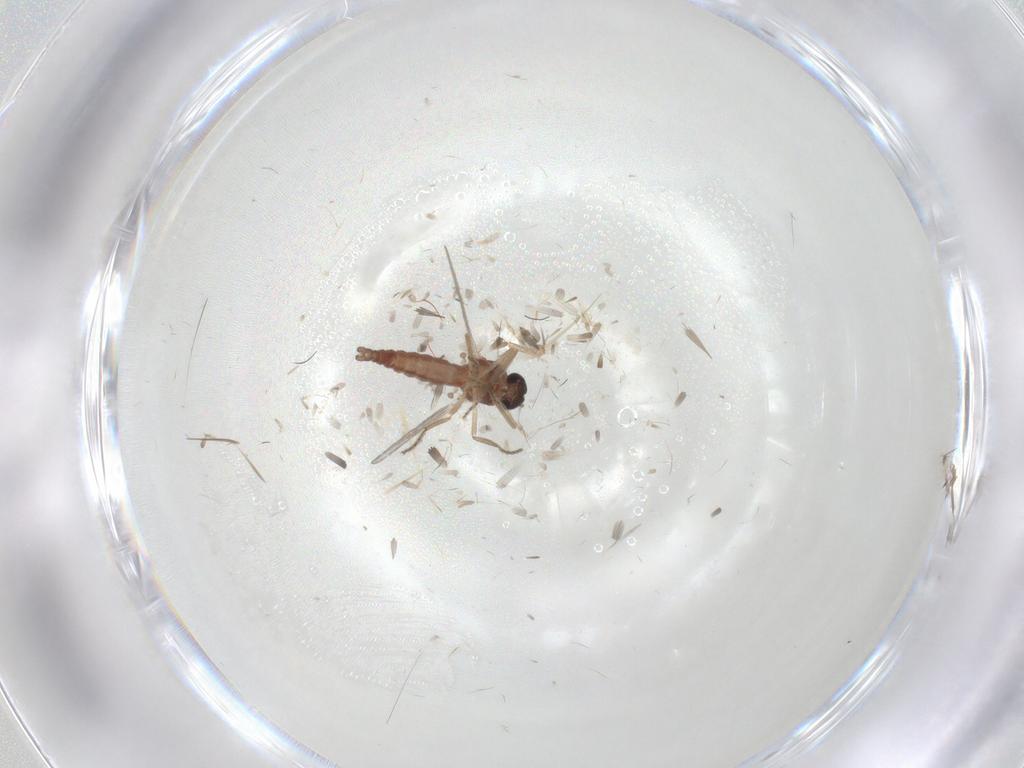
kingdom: Animalia
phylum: Arthropoda
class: Insecta
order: Diptera
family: Ceratopogonidae
